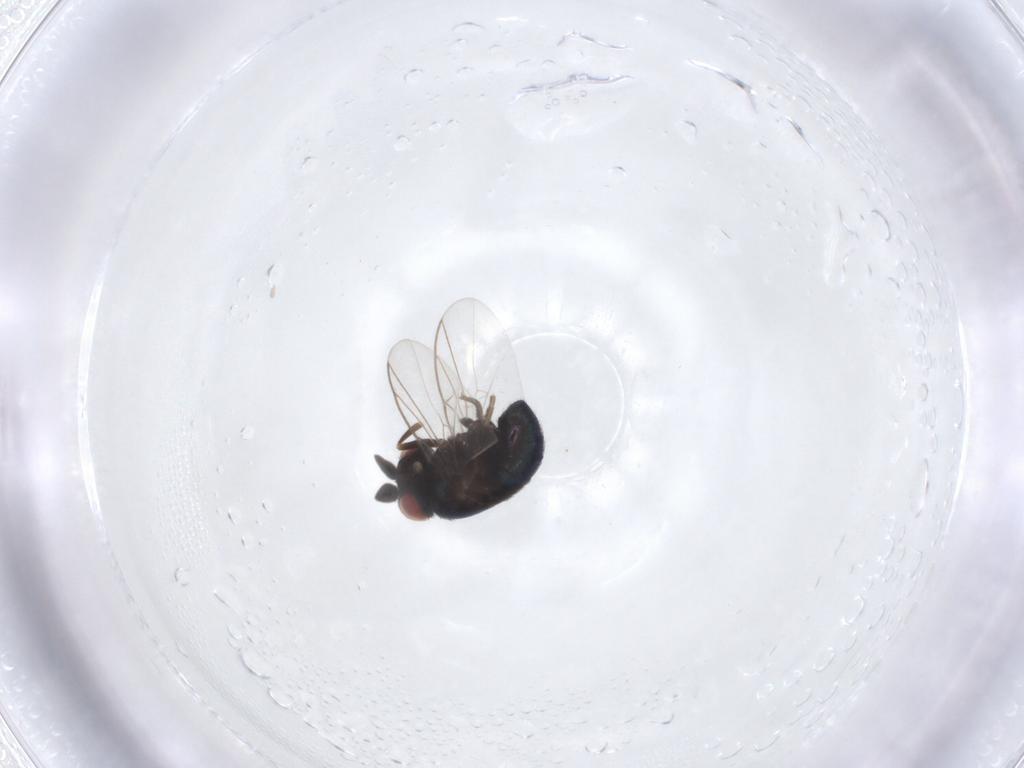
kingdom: Animalia
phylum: Arthropoda
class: Insecta
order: Diptera
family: Cryptochetidae
